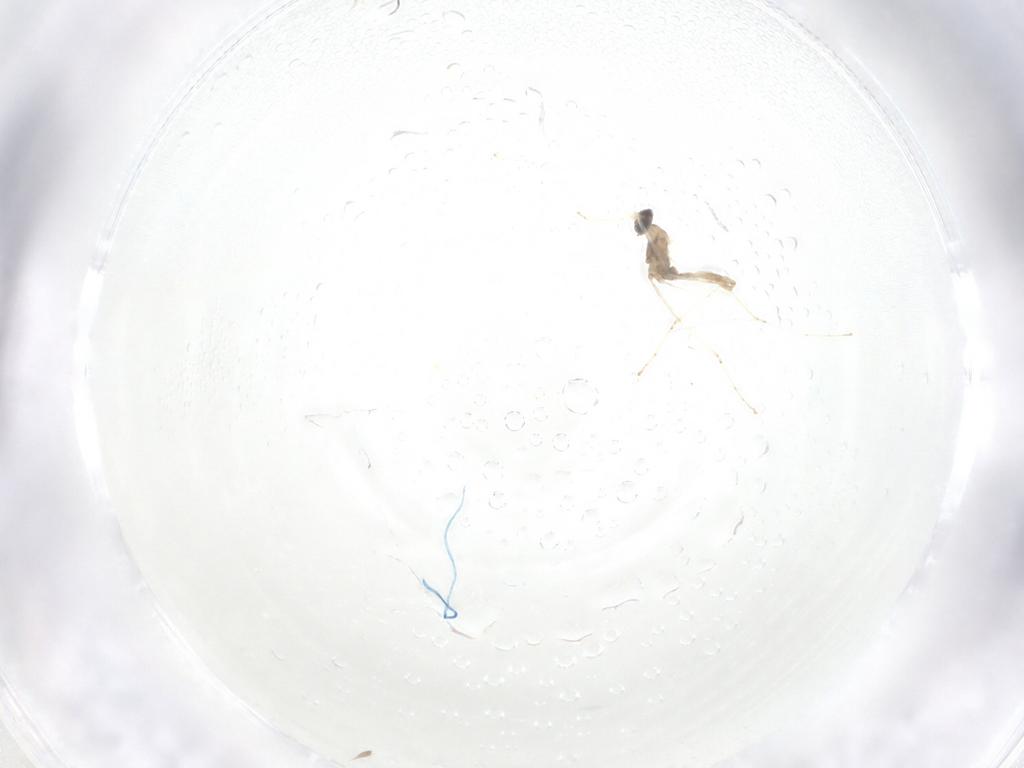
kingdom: Animalia
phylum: Arthropoda
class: Insecta
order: Diptera
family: Cecidomyiidae
